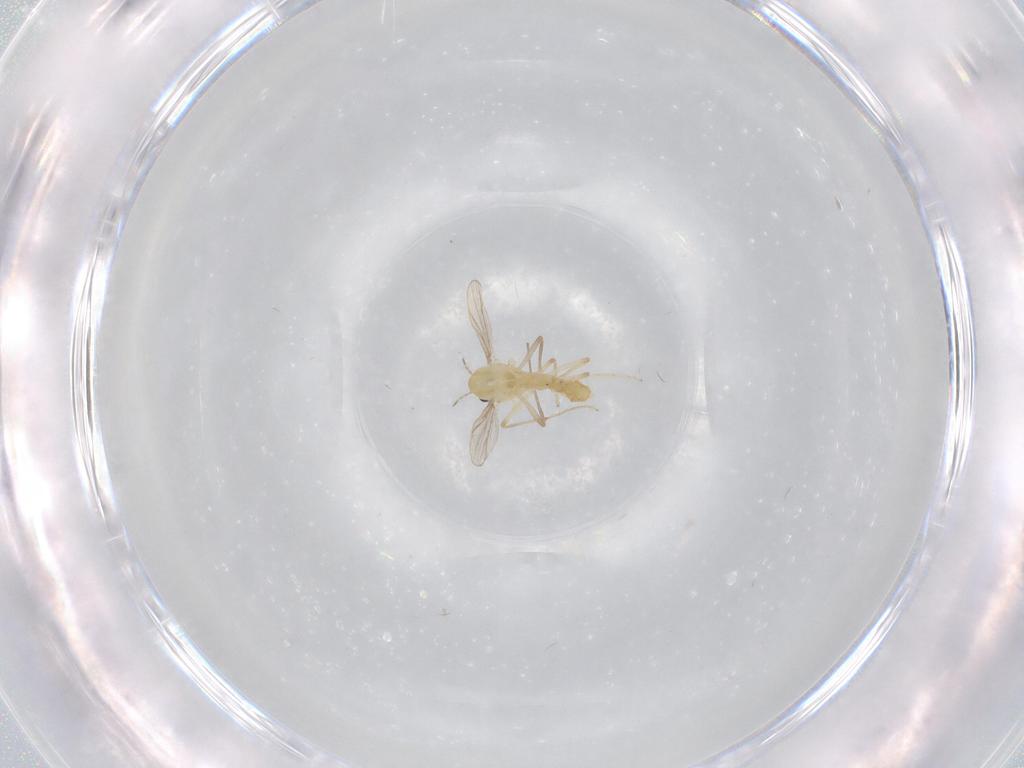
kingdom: Animalia
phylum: Arthropoda
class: Insecta
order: Diptera
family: Chironomidae
